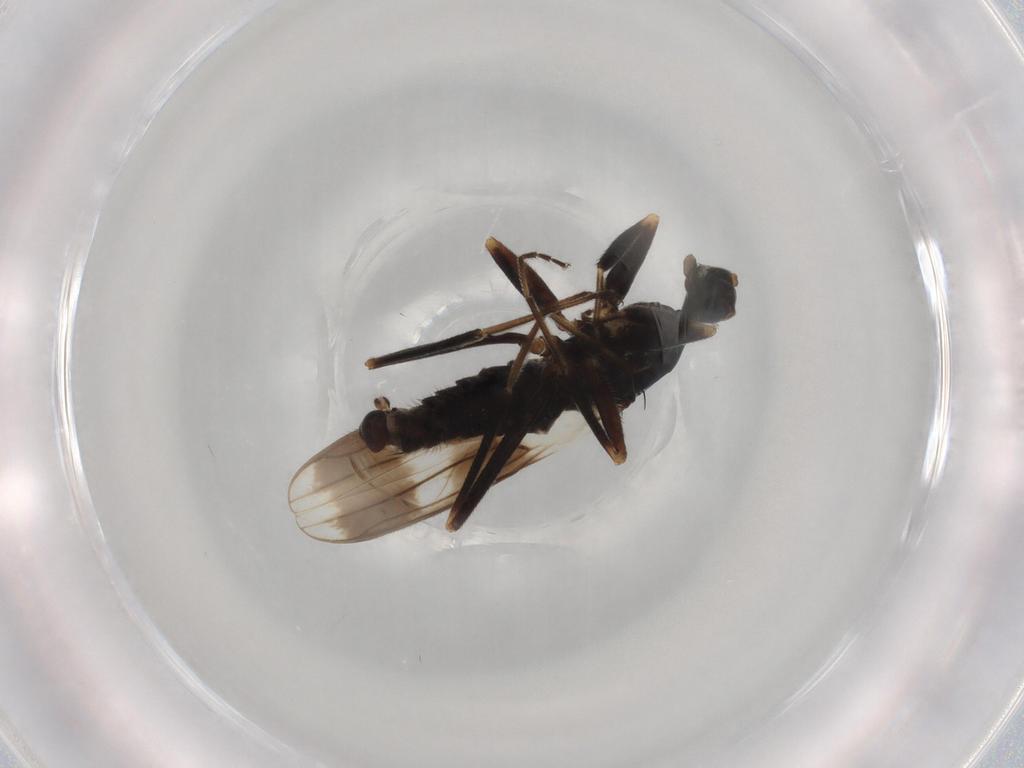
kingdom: Animalia
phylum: Arthropoda
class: Insecta
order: Diptera
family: Chironomidae
